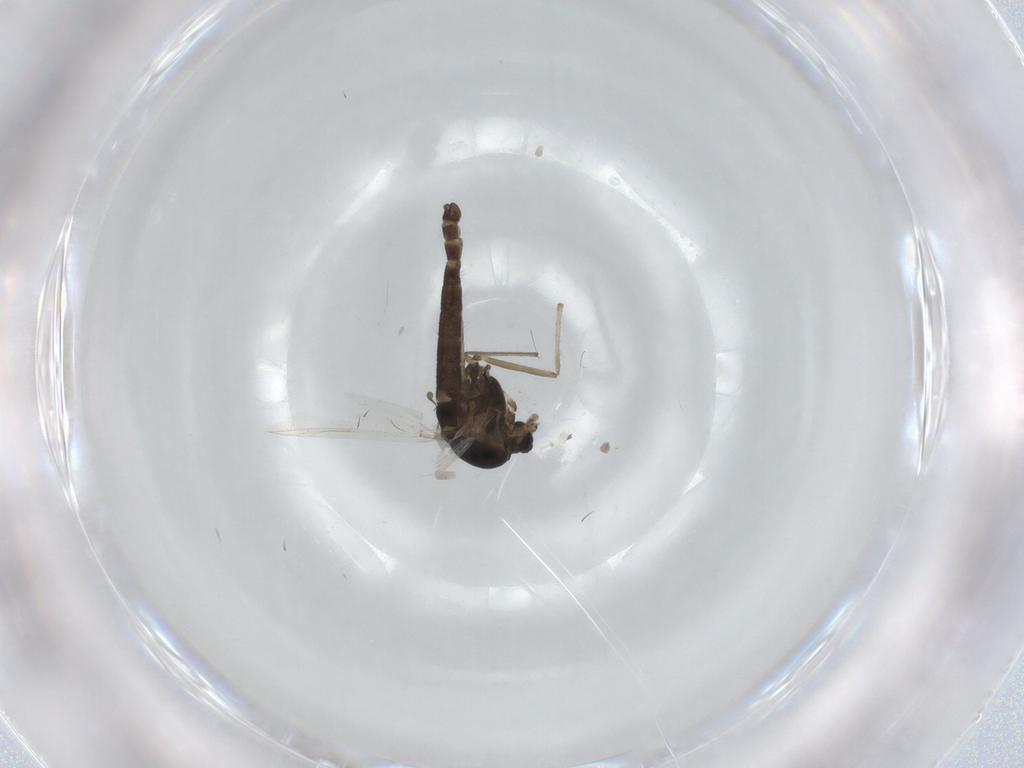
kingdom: Animalia
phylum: Arthropoda
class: Insecta
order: Diptera
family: Chironomidae
